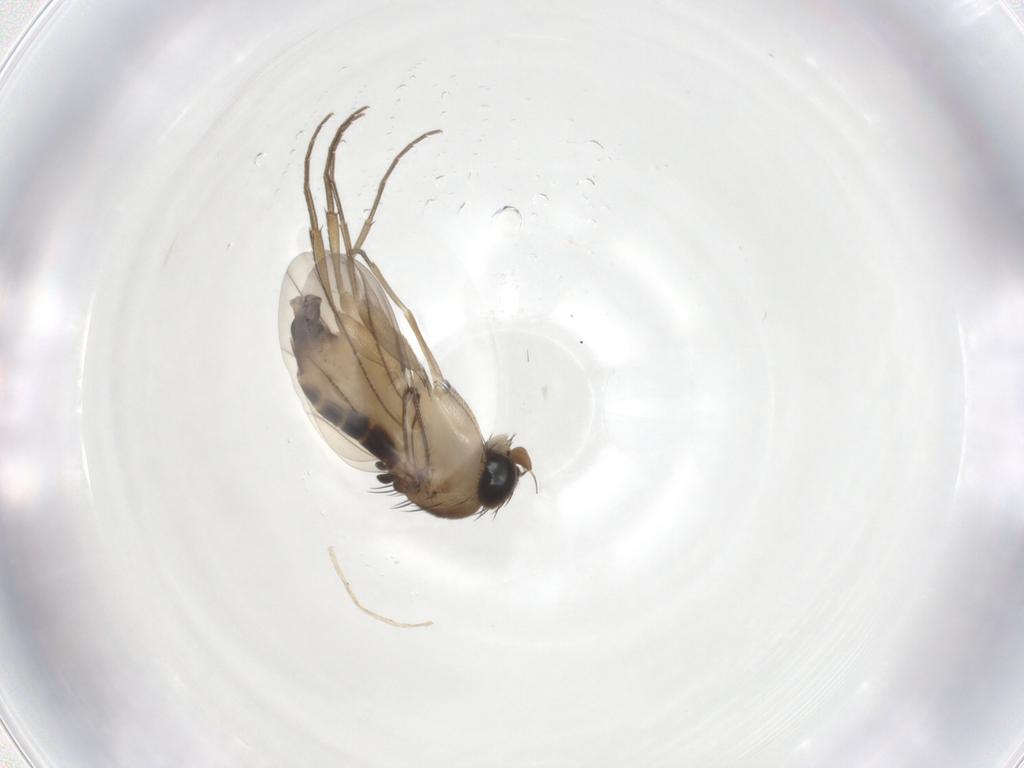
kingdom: Animalia
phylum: Arthropoda
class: Insecta
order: Diptera
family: Phoridae
